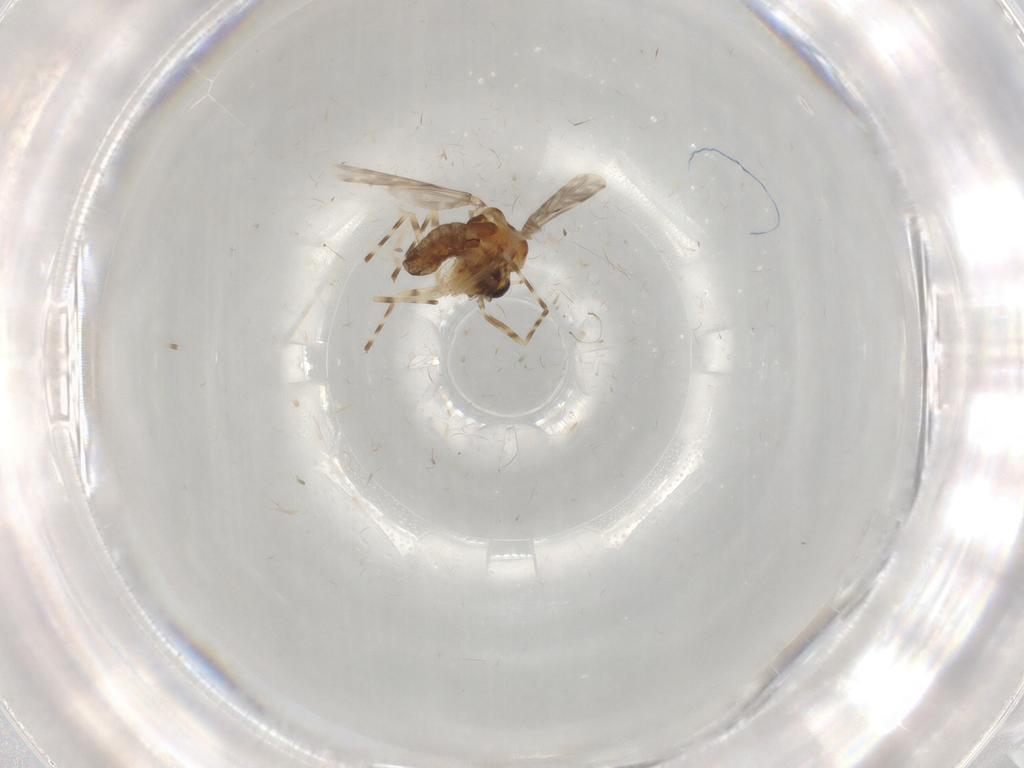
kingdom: Animalia
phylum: Arthropoda
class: Insecta
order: Diptera
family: Chironomidae
